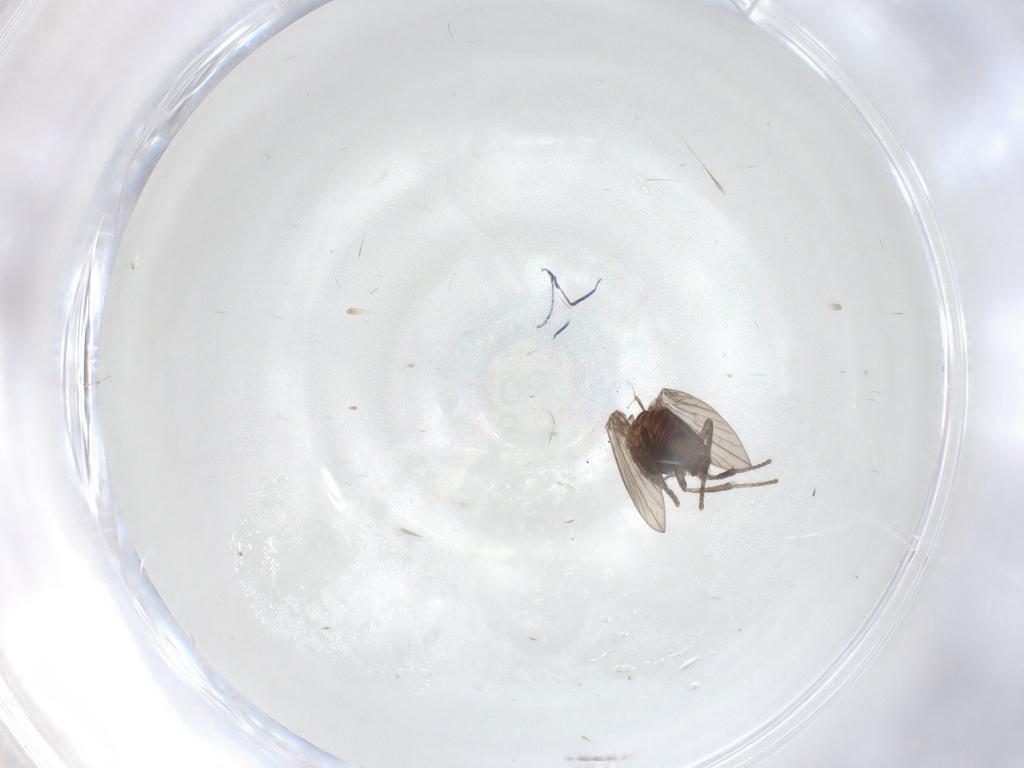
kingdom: Animalia
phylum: Arthropoda
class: Insecta
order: Diptera
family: Psychodidae
